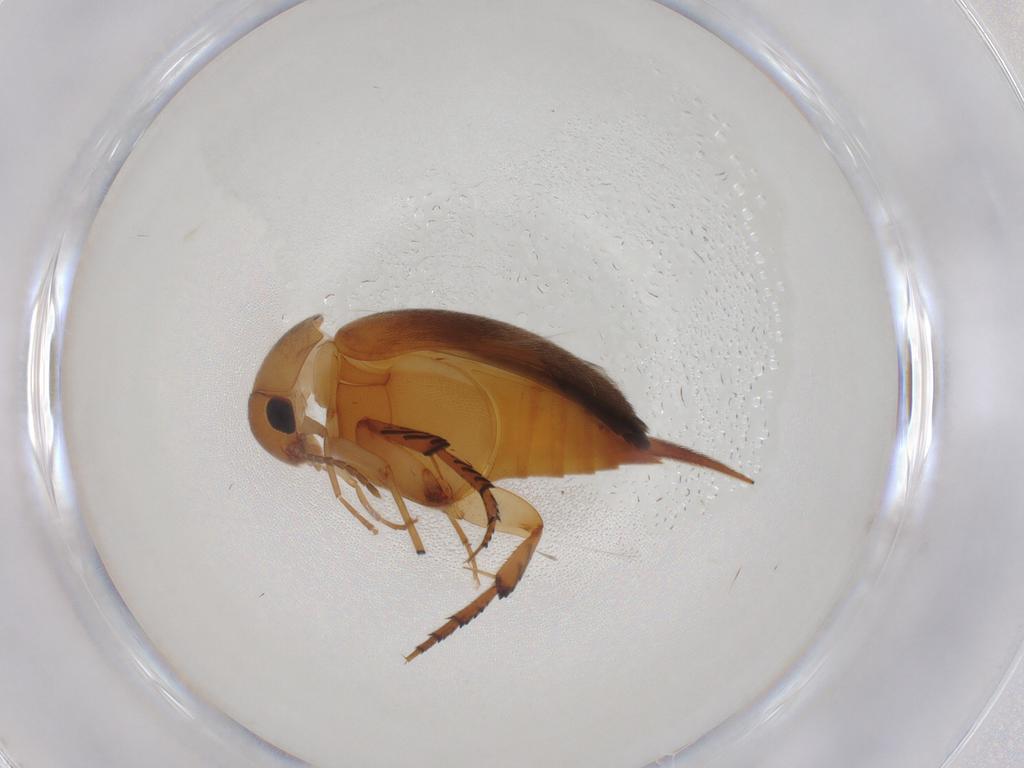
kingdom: Animalia
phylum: Arthropoda
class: Insecta
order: Coleoptera
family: Mordellidae
